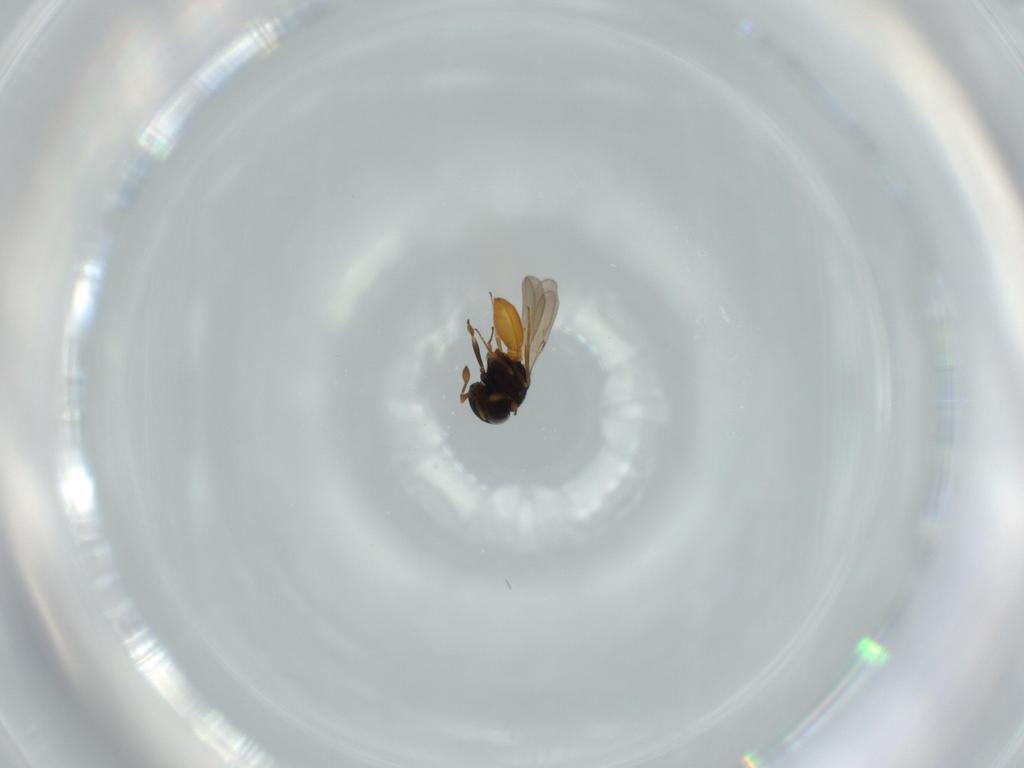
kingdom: Animalia
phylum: Arthropoda
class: Insecta
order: Hymenoptera
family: Scelionidae
